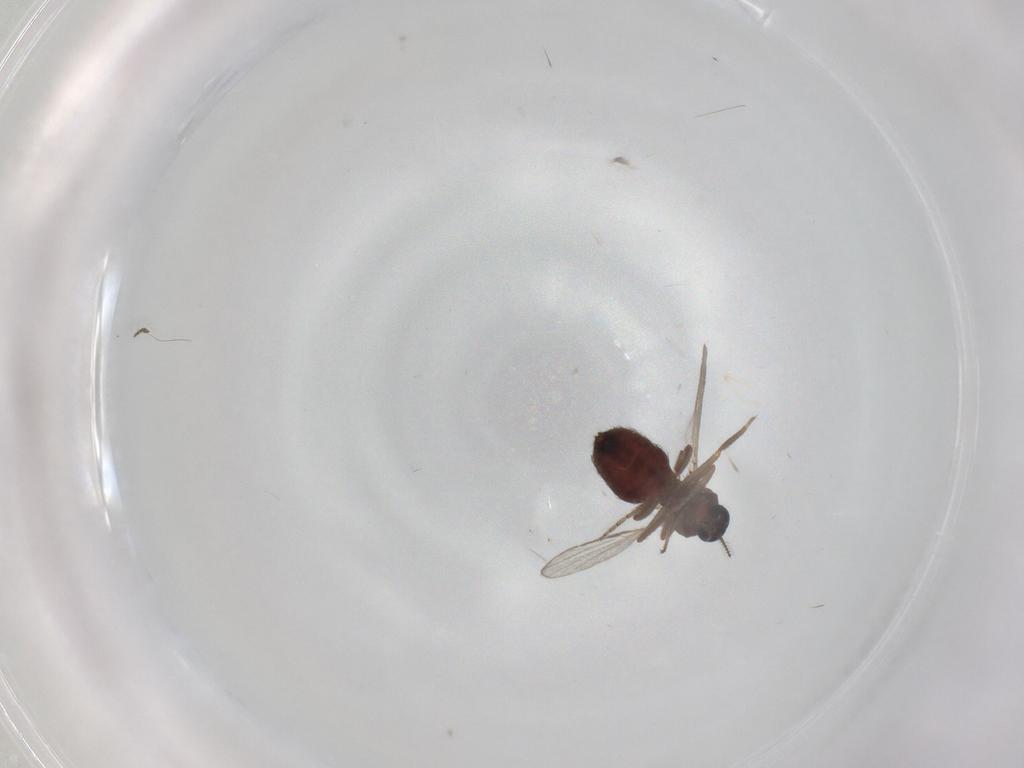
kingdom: Animalia
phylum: Arthropoda
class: Insecta
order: Diptera
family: Ceratopogonidae
